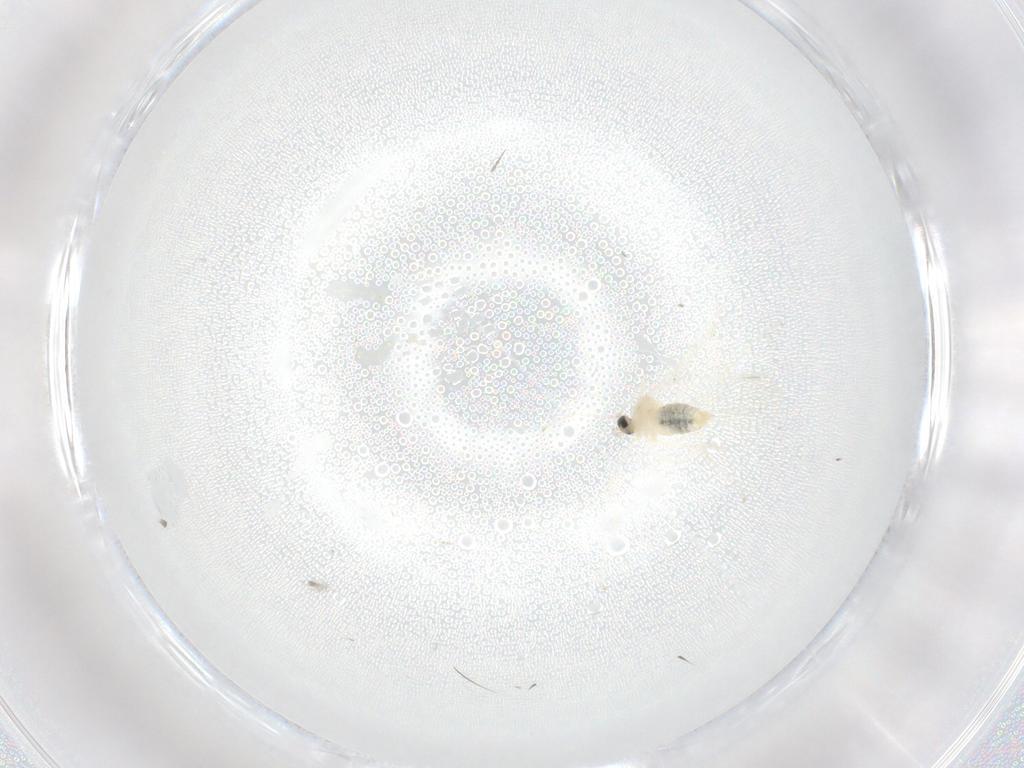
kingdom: Animalia
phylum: Arthropoda
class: Insecta
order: Diptera
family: Cecidomyiidae
